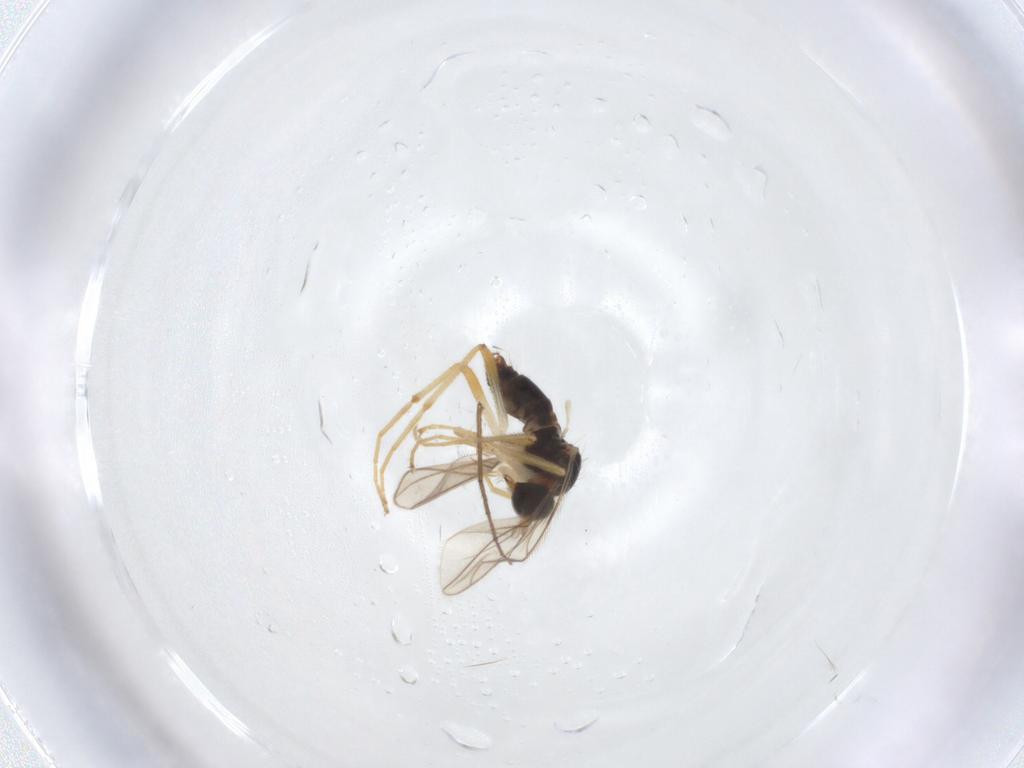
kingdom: Animalia
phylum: Arthropoda
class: Insecta
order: Diptera
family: Hybotidae
